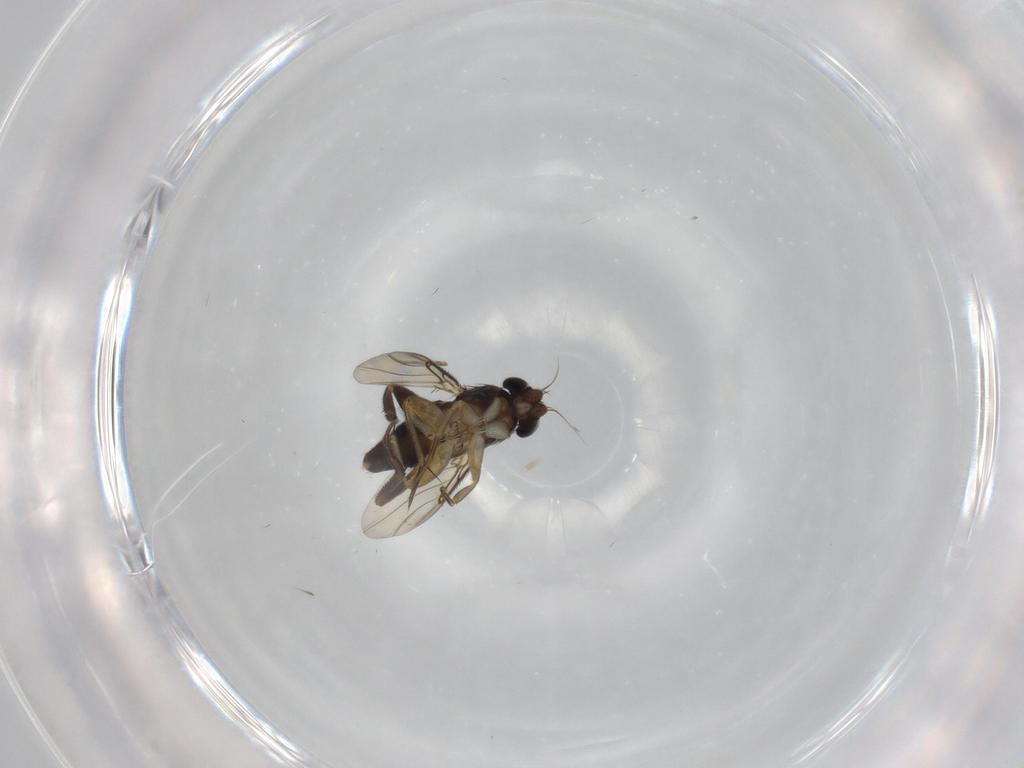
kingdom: Animalia
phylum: Arthropoda
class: Insecta
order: Diptera
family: Phoridae
